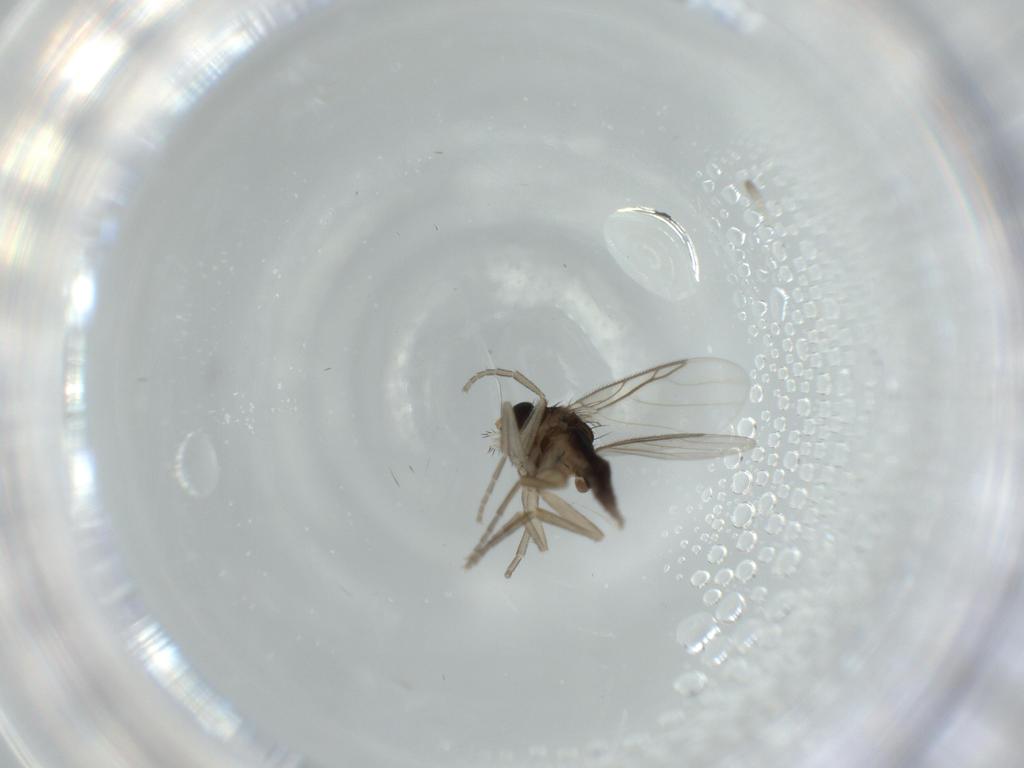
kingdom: Animalia
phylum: Arthropoda
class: Insecta
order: Diptera
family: Phoridae
